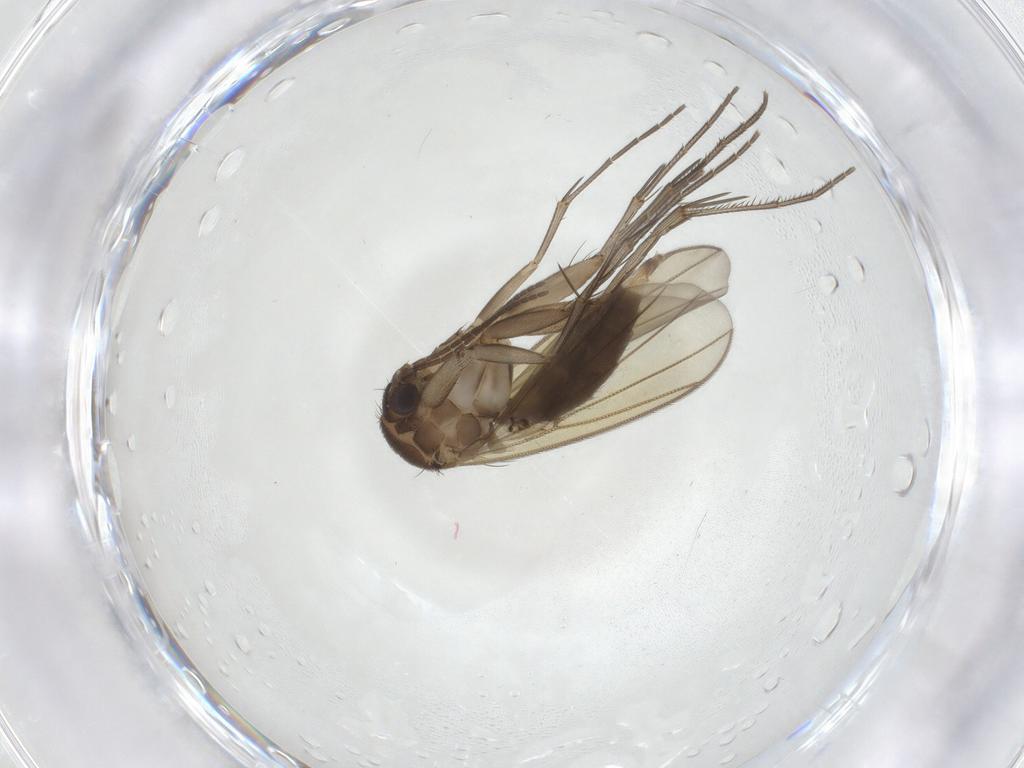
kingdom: Animalia
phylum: Arthropoda
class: Insecta
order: Diptera
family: Mycetophilidae
